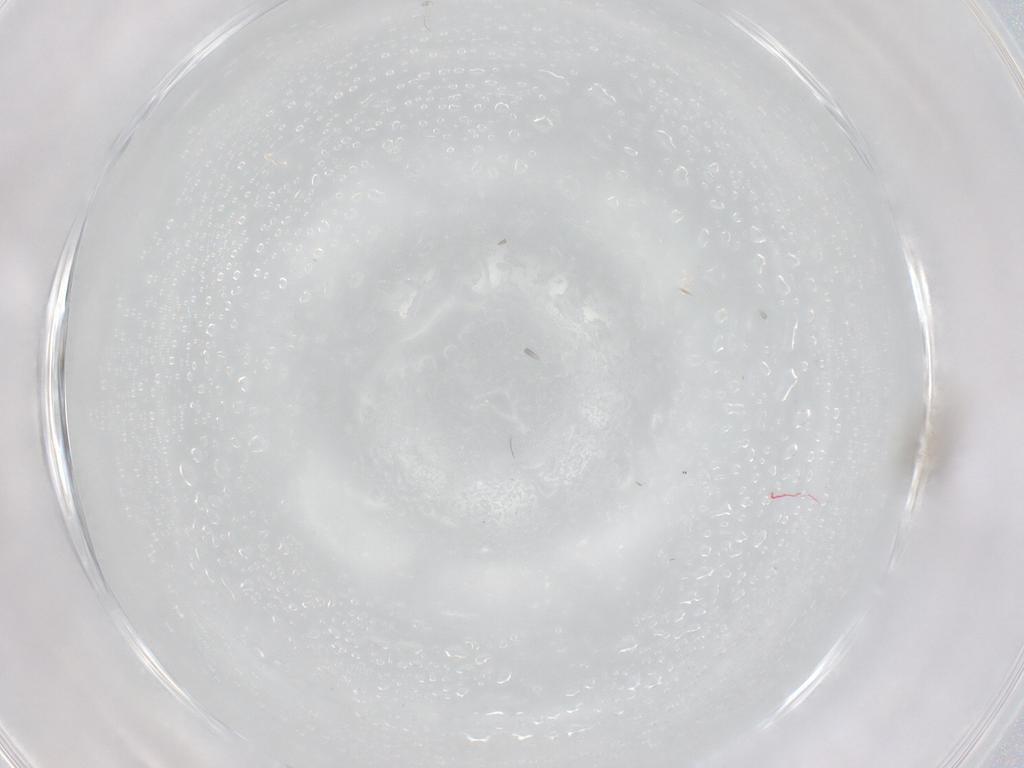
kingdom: Animalia
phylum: Arthropoda
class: Insecta
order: Diptera
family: Cecidomyiidae
